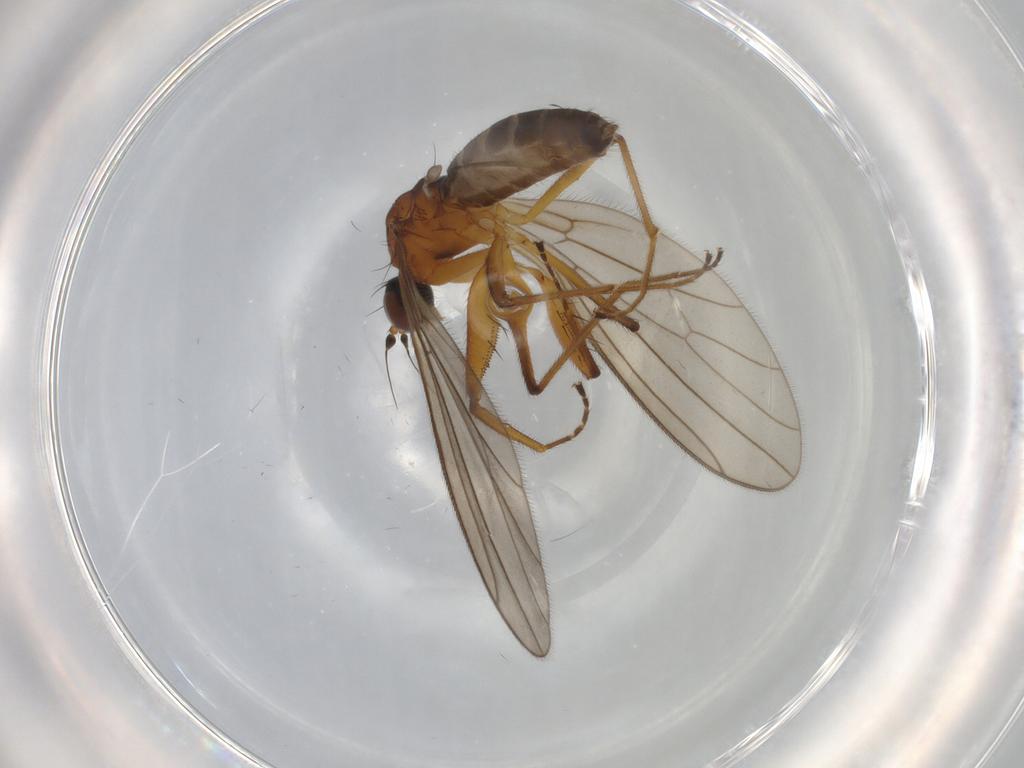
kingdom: Animalia
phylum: Arthropoda
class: Insecta
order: Diptera
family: Empididae
